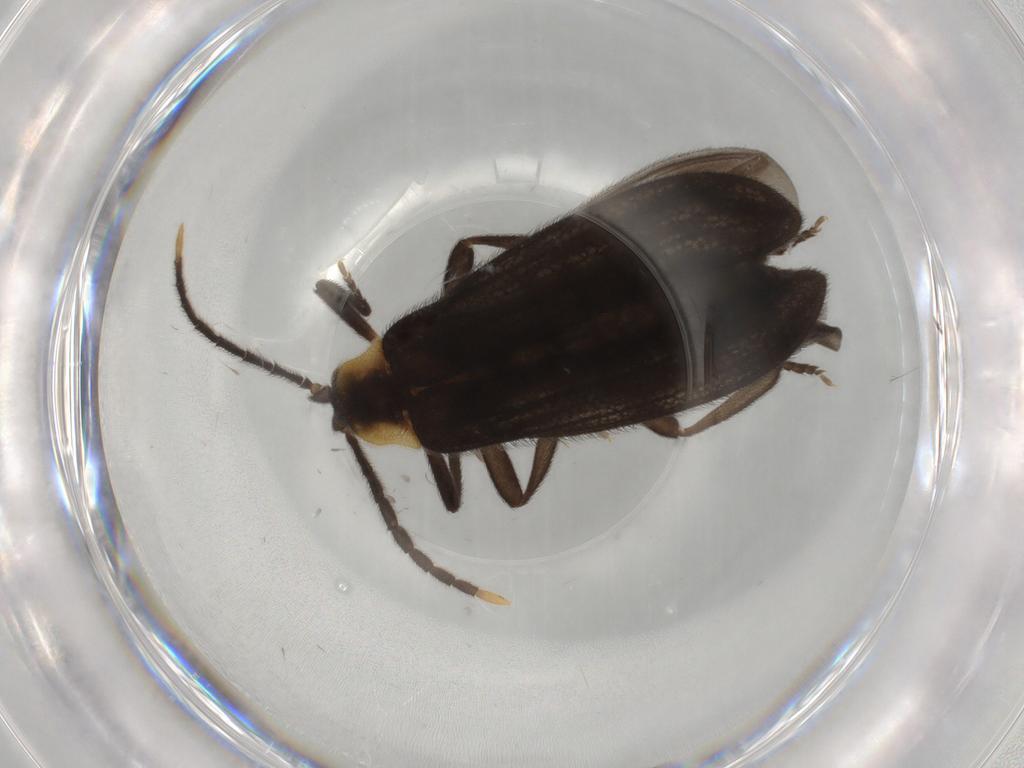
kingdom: Animalia
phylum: Arthropoda
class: Insecta
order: Coleoptera
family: Lycidae
